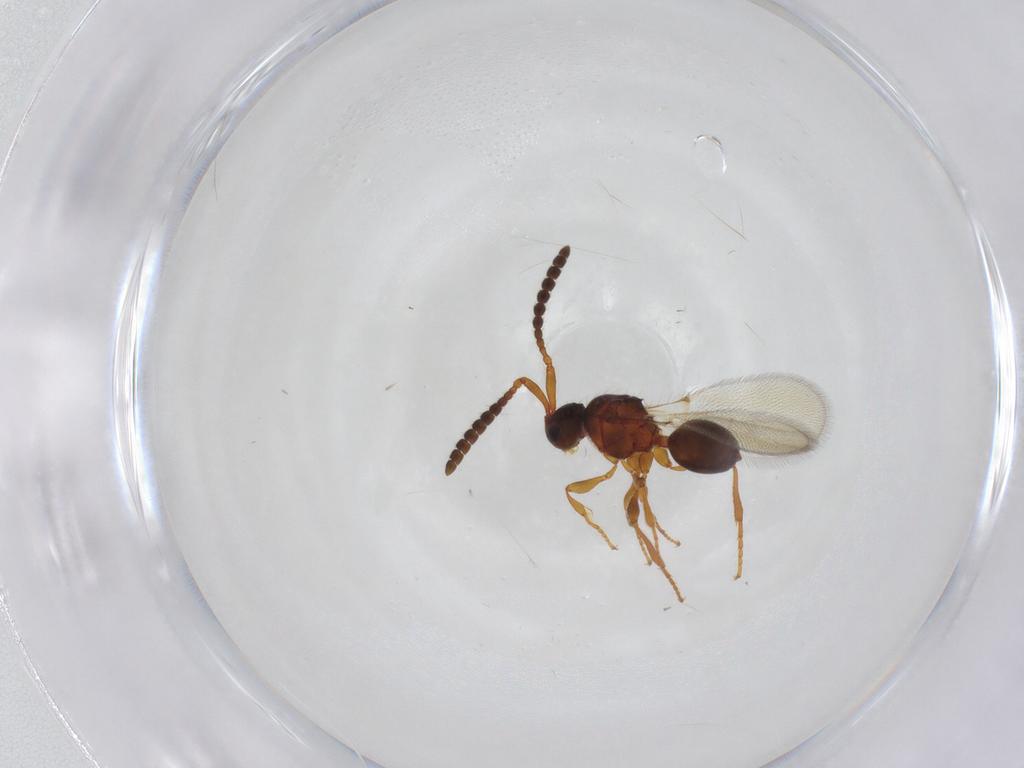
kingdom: Animalia
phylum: Arthropoda
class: Insecta
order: Hymenoptera
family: Diapriidae
